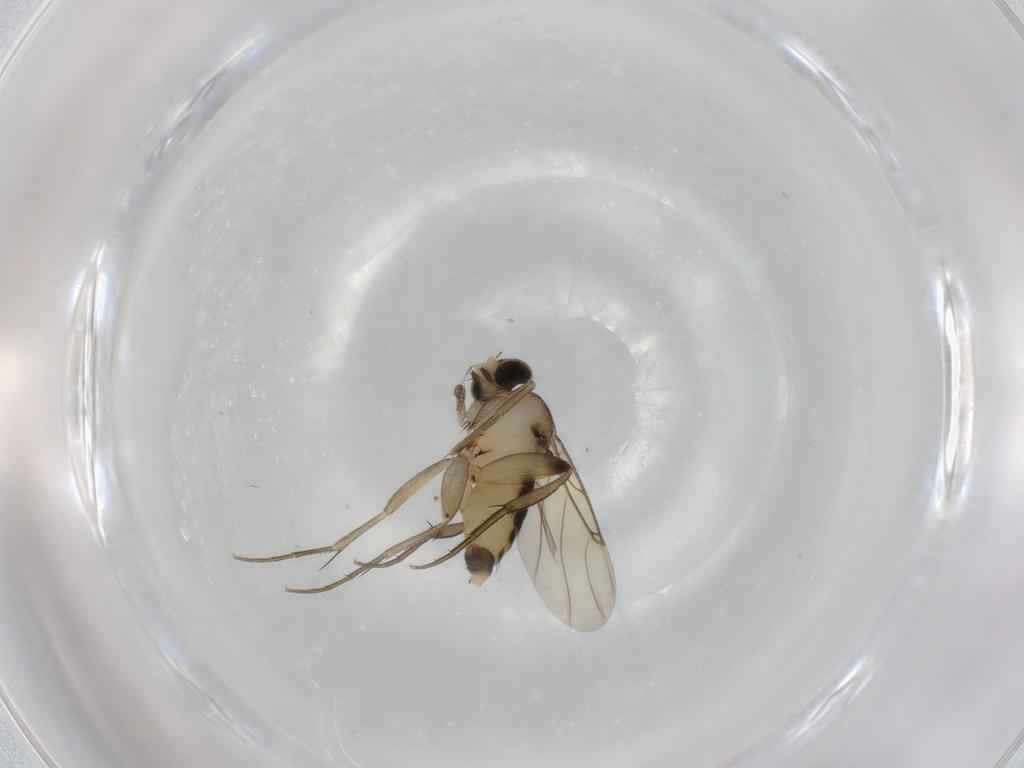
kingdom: Animalia
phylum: Arthropoda
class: Insecta
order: Diptera
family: Phoridae
